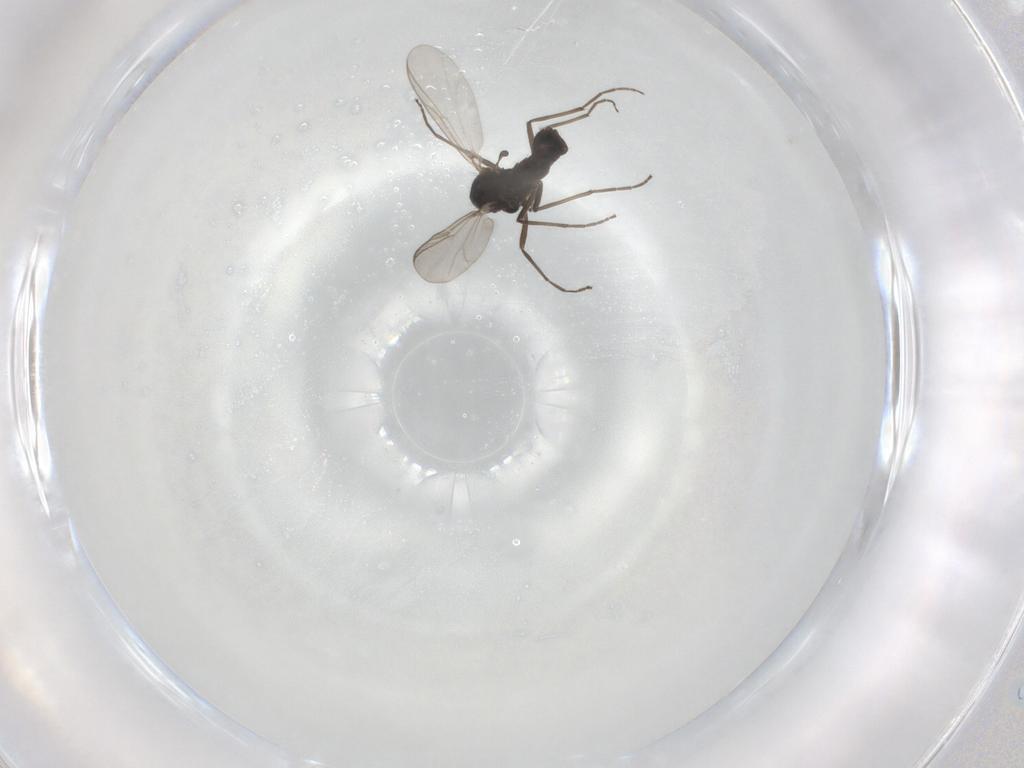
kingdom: Animalia
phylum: Arthropoda
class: Insecta
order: Diptera
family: Chironomidae
